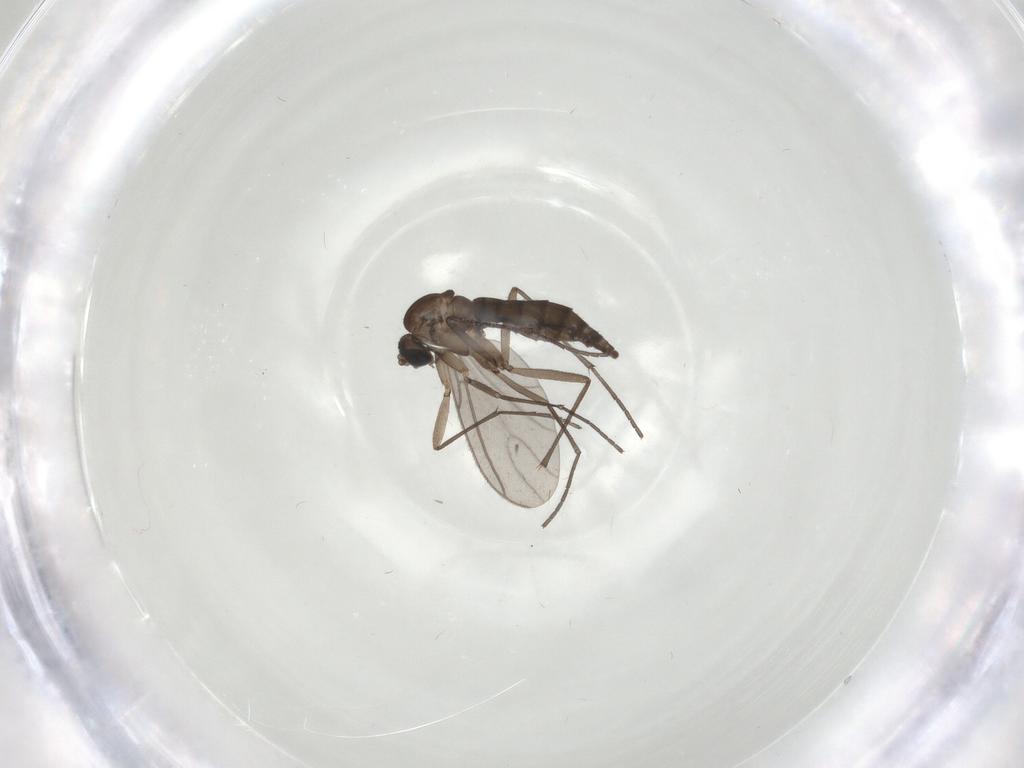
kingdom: Animalia
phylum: Arthropoda
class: Insecta
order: Diptera
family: Sciaridae
